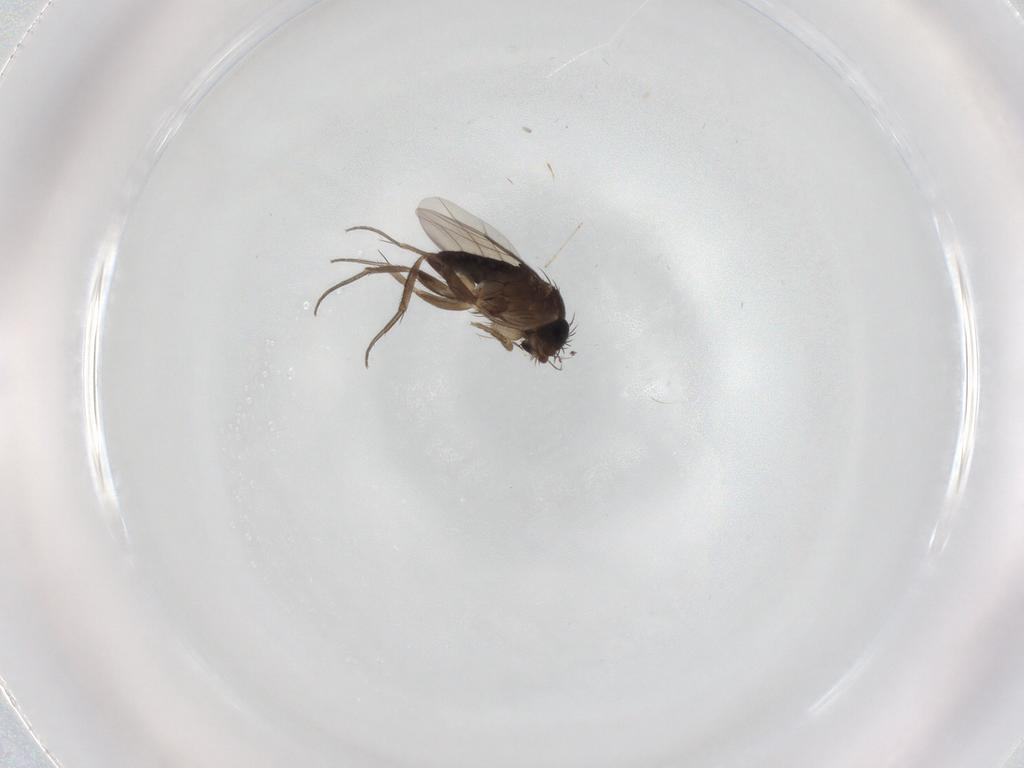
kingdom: Animalia
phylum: Arthropoda
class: Insecta
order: Diptera
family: Phoridae
